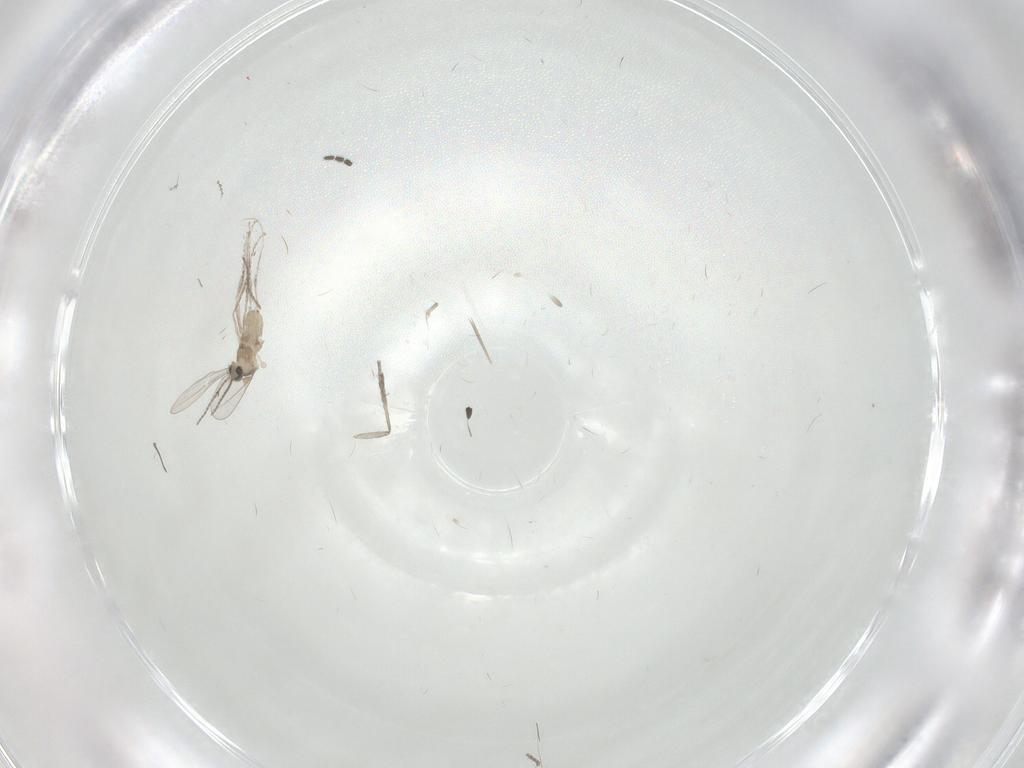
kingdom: Animalia
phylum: Arthropoda
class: Insecta
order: Diptera
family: Cecidomyiidae
